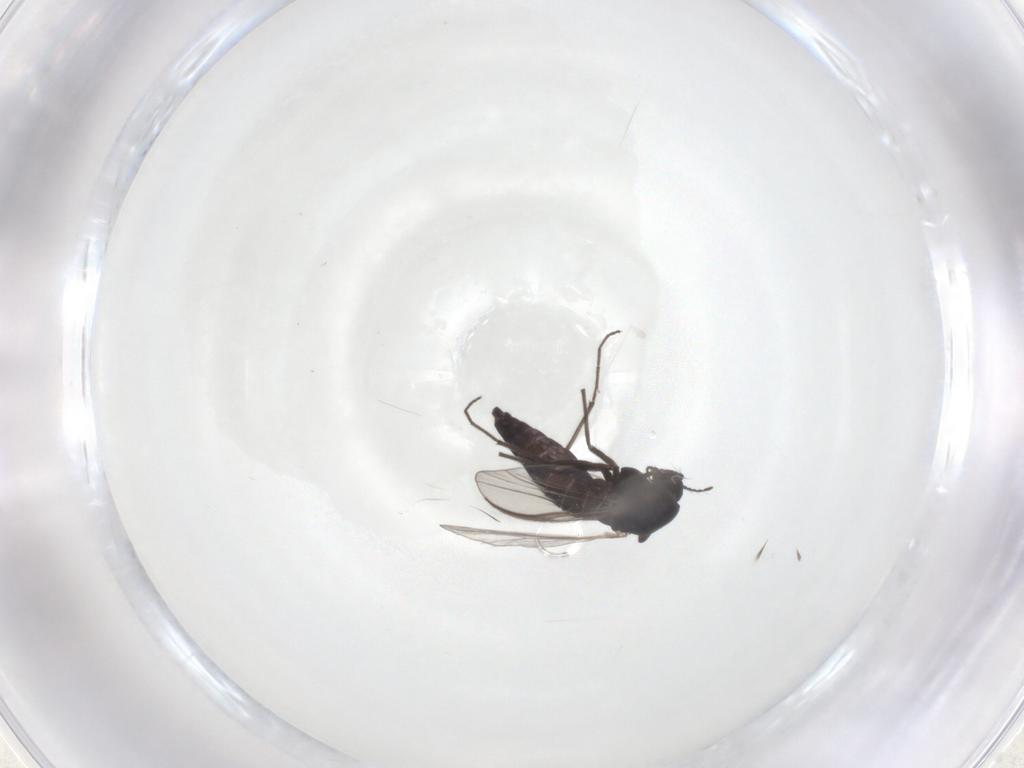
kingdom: Animalia
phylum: Arthropoda
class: Insecta
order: Diptera
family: Chironomidae
